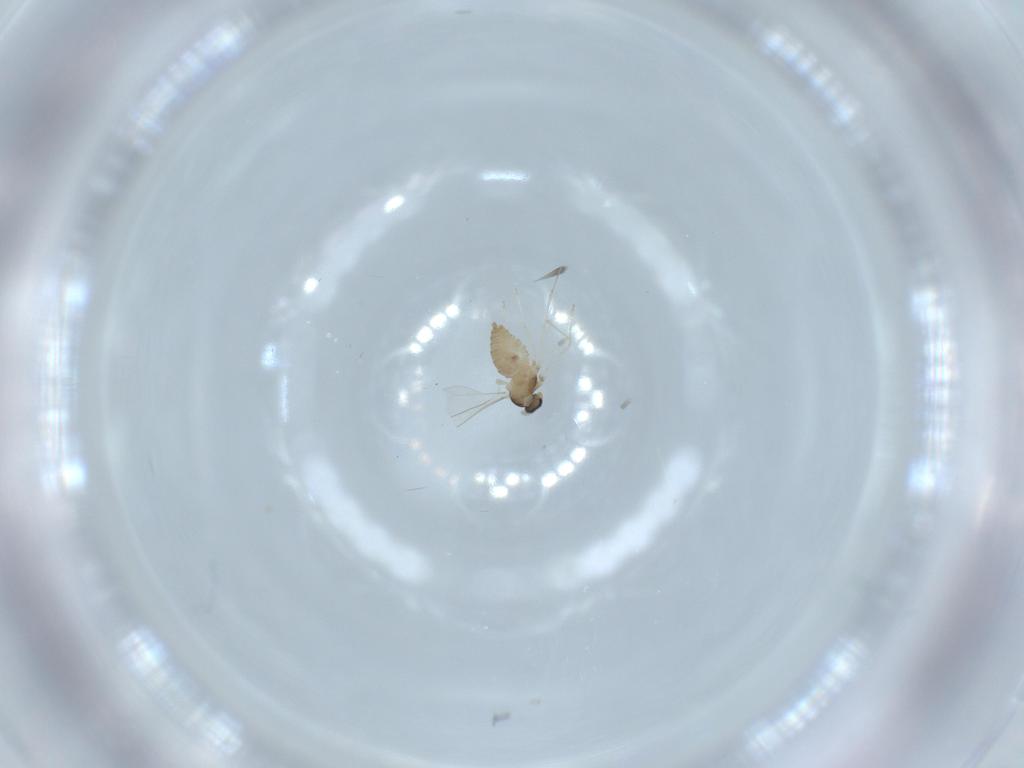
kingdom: Animalia
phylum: Arthropoda
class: Insecta
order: Diptera
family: Cecidomyiidae
